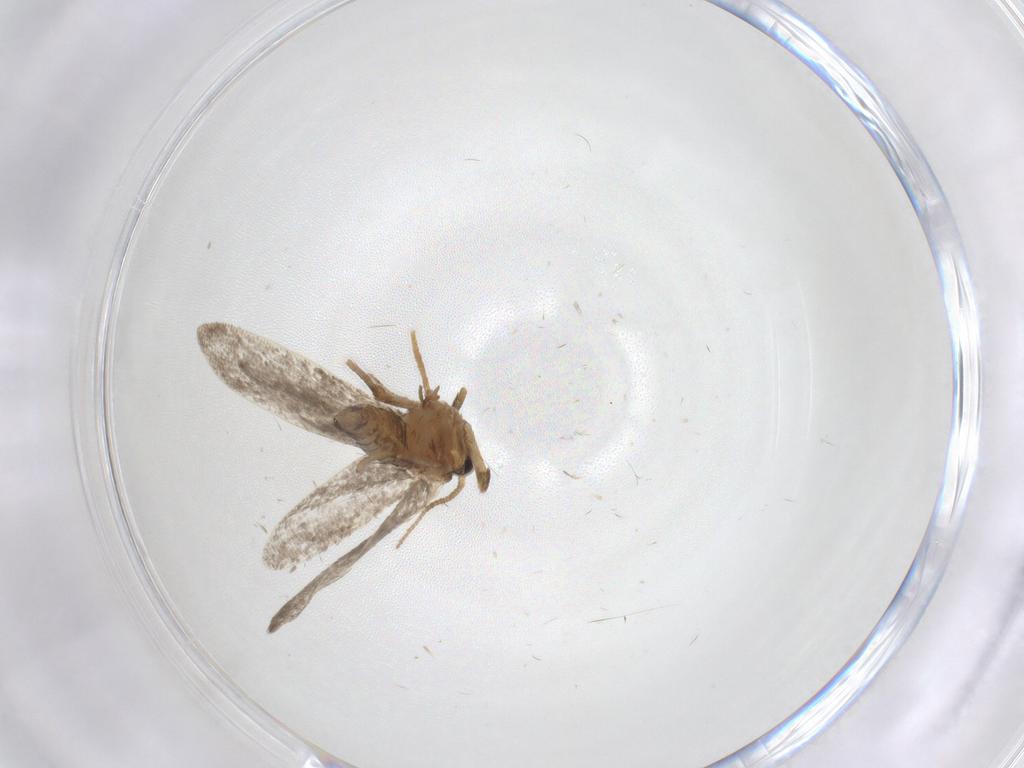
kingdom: Animalia
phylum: Arthropoda
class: Insecta
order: Lepidoptera
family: Psychidae
